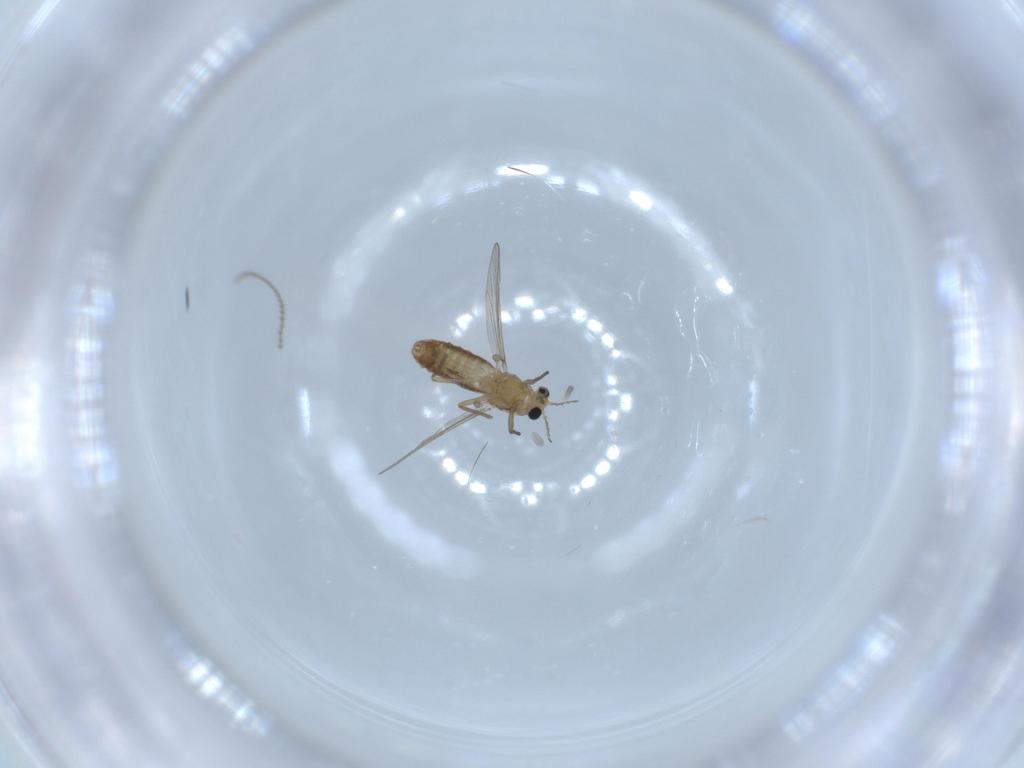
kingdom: Animalia
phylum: Arthropoda
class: Insecta
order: Diptera
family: Chironomidae
